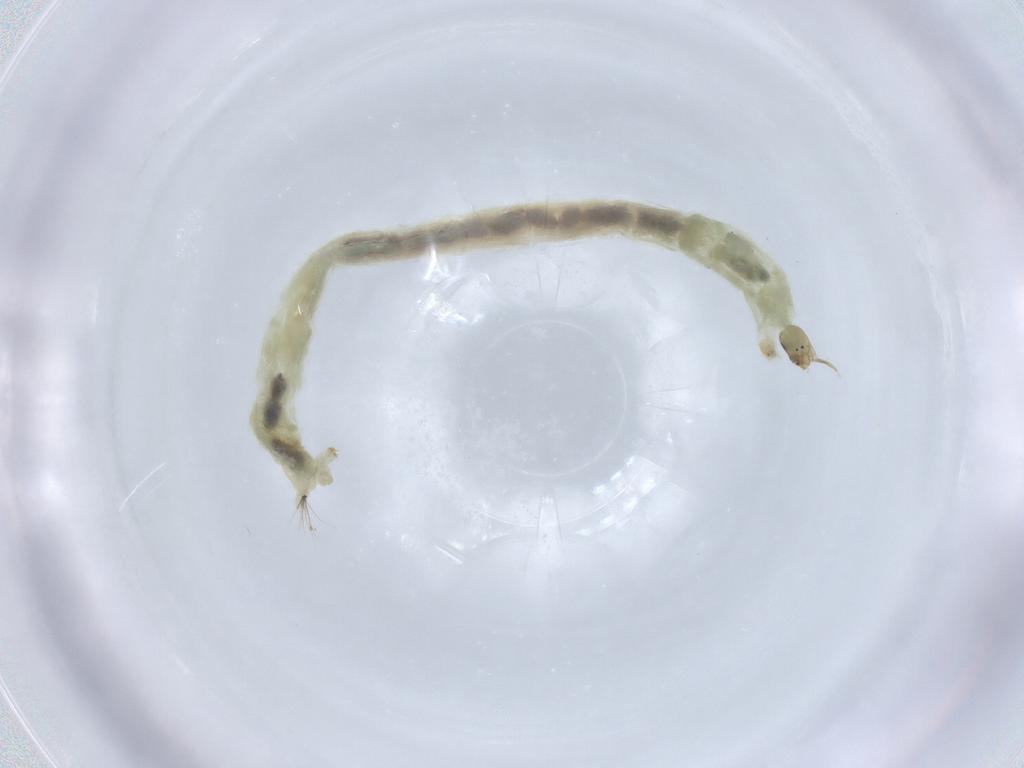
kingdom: Animalia
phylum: Arthropoda
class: Insecta
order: Diptera
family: Chironomidae
